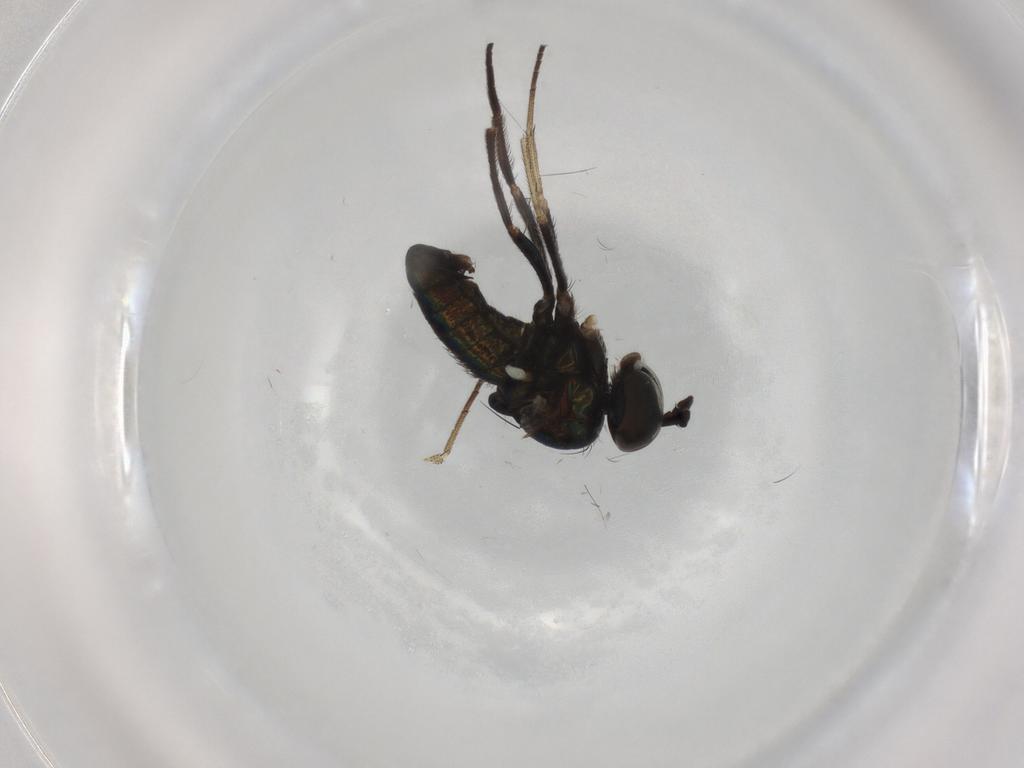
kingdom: Animalia
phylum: Arthropoda
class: Insecta
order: Diptera
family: Dolichopodidae
